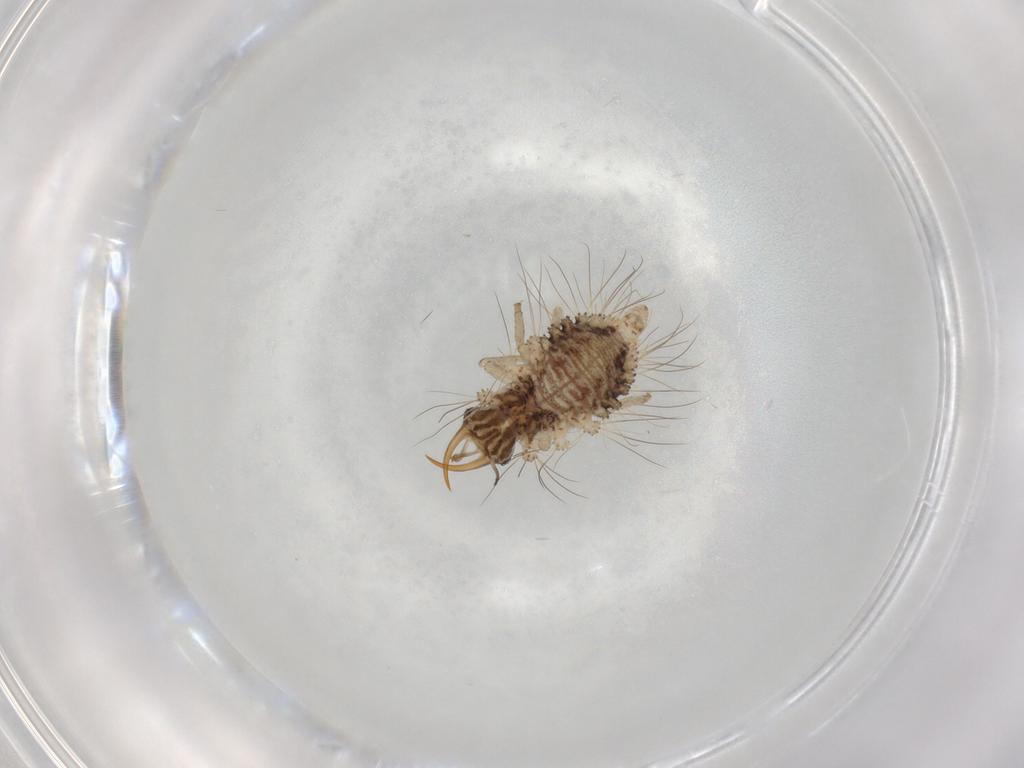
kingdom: Animalia
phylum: Arthropoda
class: Insecta
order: Neuroptera
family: Chrysopidae
